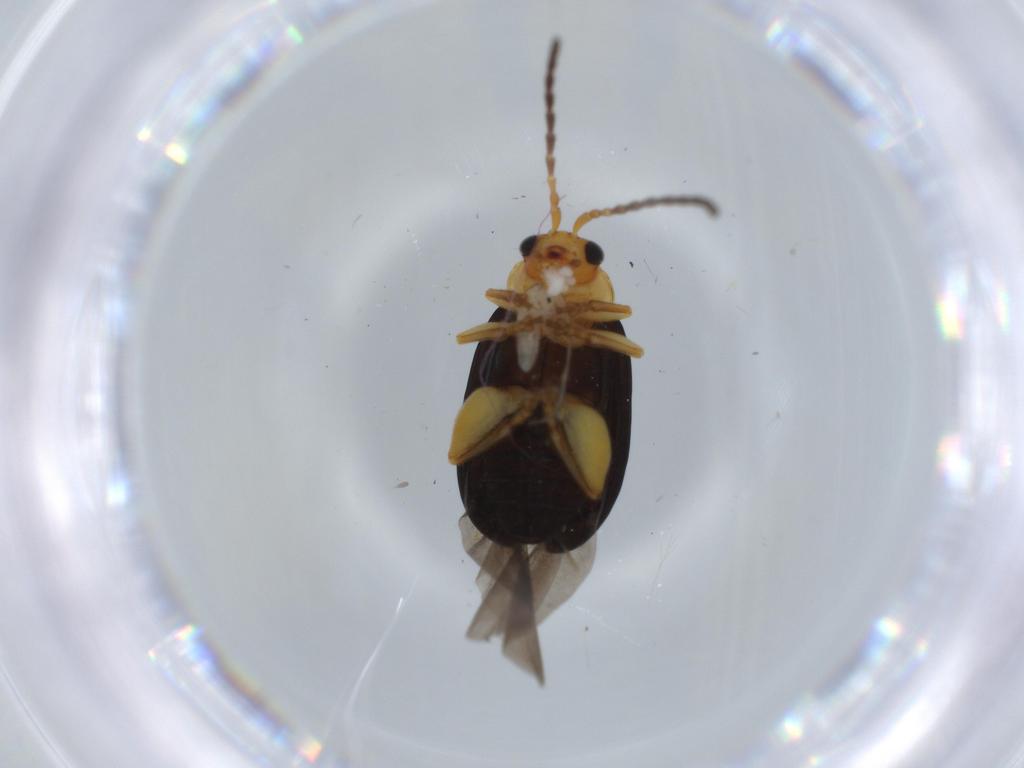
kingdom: Animalia
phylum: Arthropoda
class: Insecta
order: Coleoptera
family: Chrysomelidae
